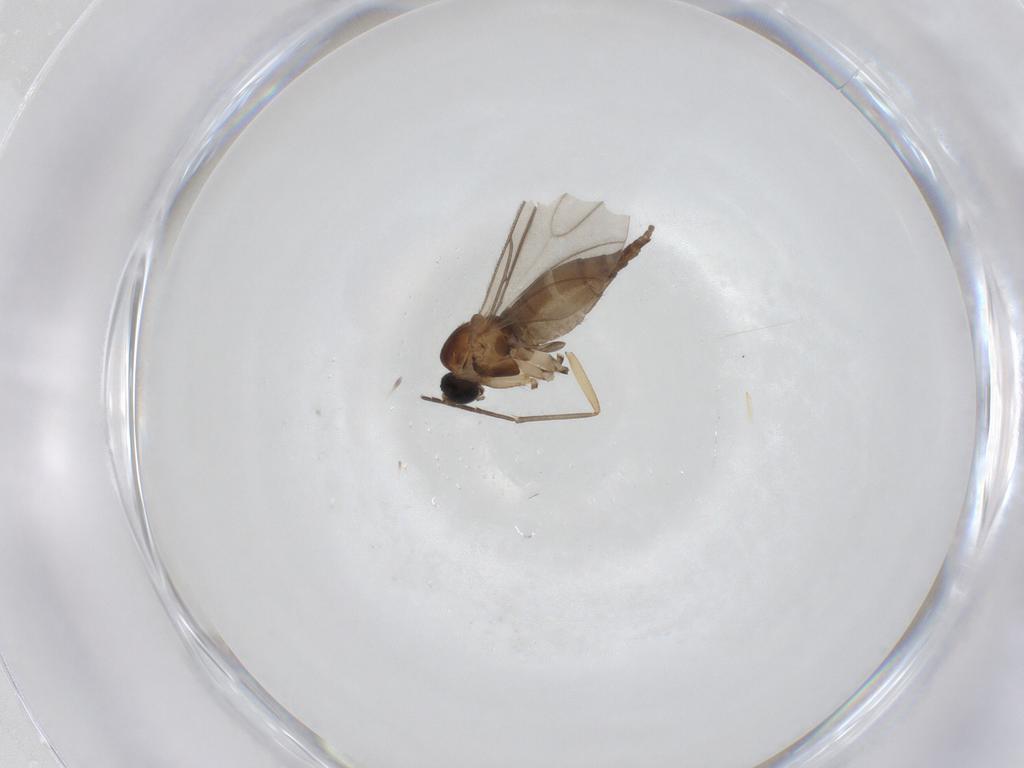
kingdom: Animalia
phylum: Arthropoda
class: Insecta
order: Diptera
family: Sciaridae
